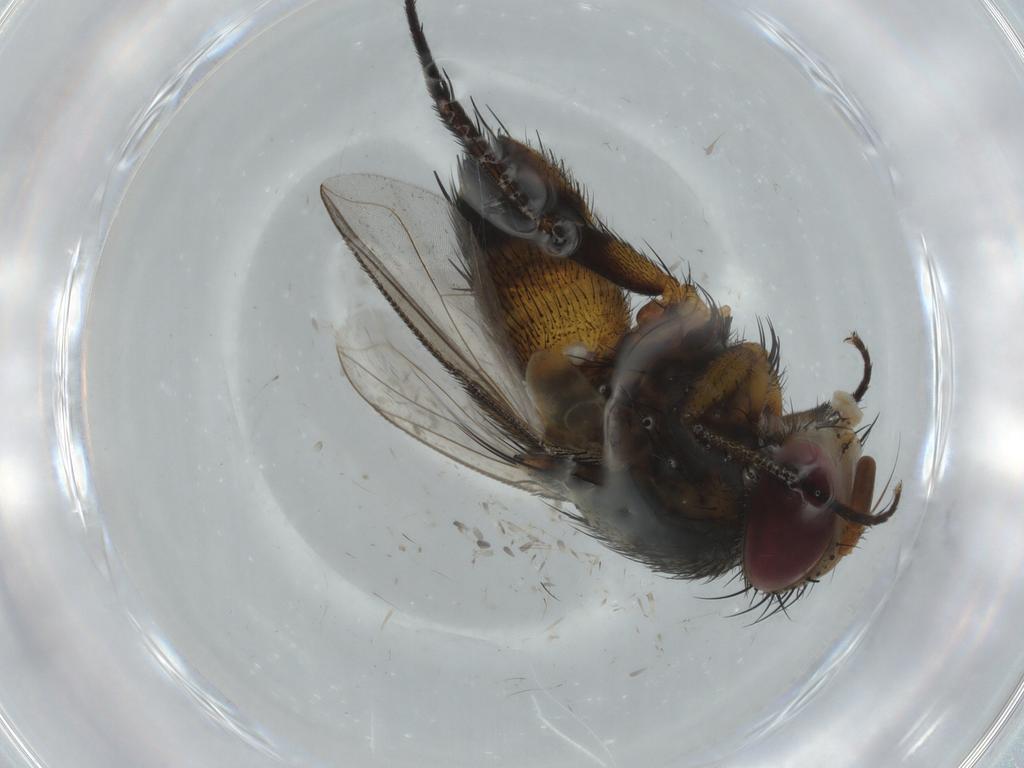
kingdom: Animalia
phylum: Arthropoda
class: Insecta
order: Diptera
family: Cecidomyiidae
